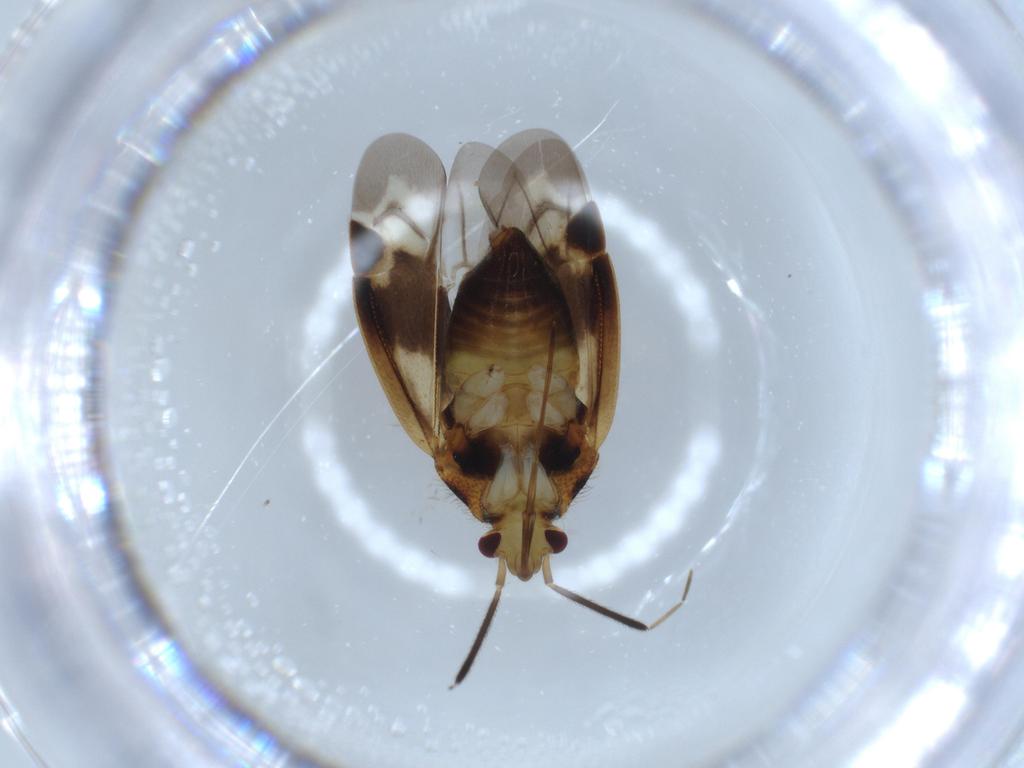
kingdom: Animalia
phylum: Arthropoda
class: Insecta
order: Hemiptera
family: Miridae
